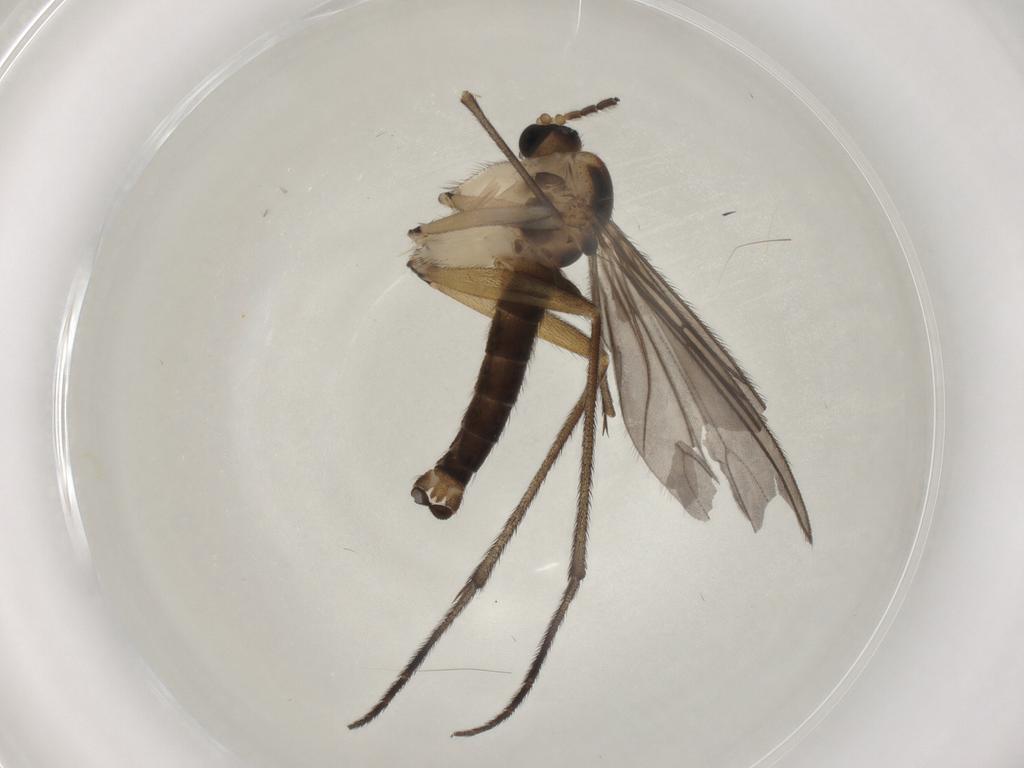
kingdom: Animalia
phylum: Arthropoda
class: Insecta
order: Diptera
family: Sciaridae
